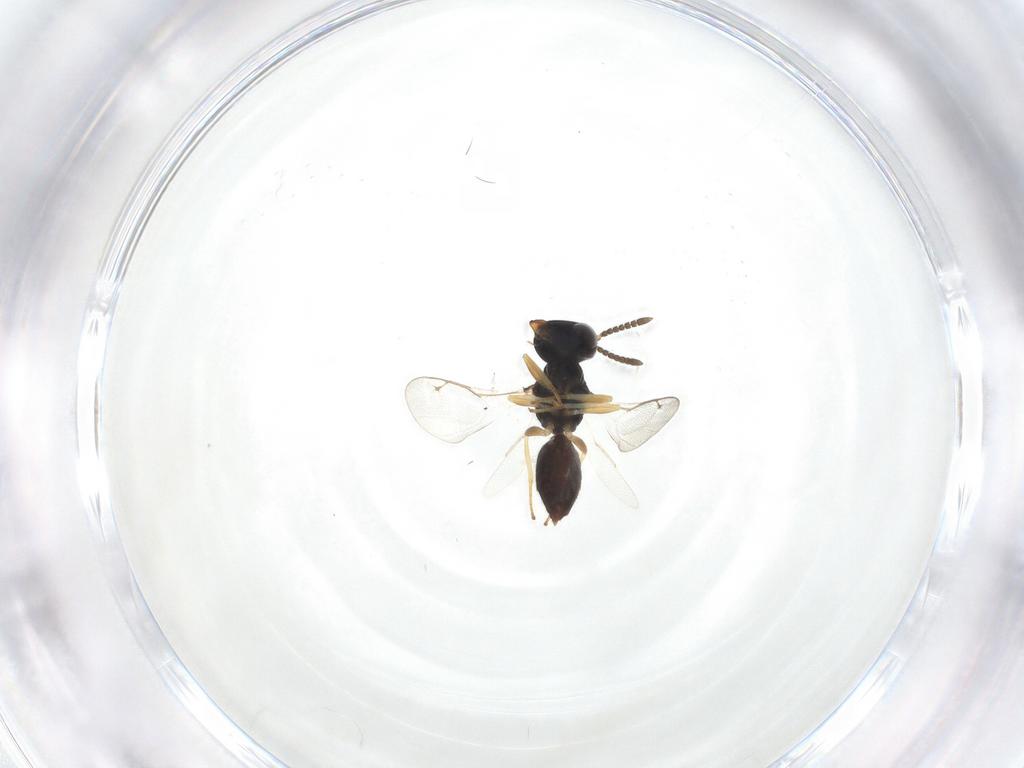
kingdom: Animalia
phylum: Arthropoda
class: Insecta
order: Hymenoptera
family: Pteromalidae
